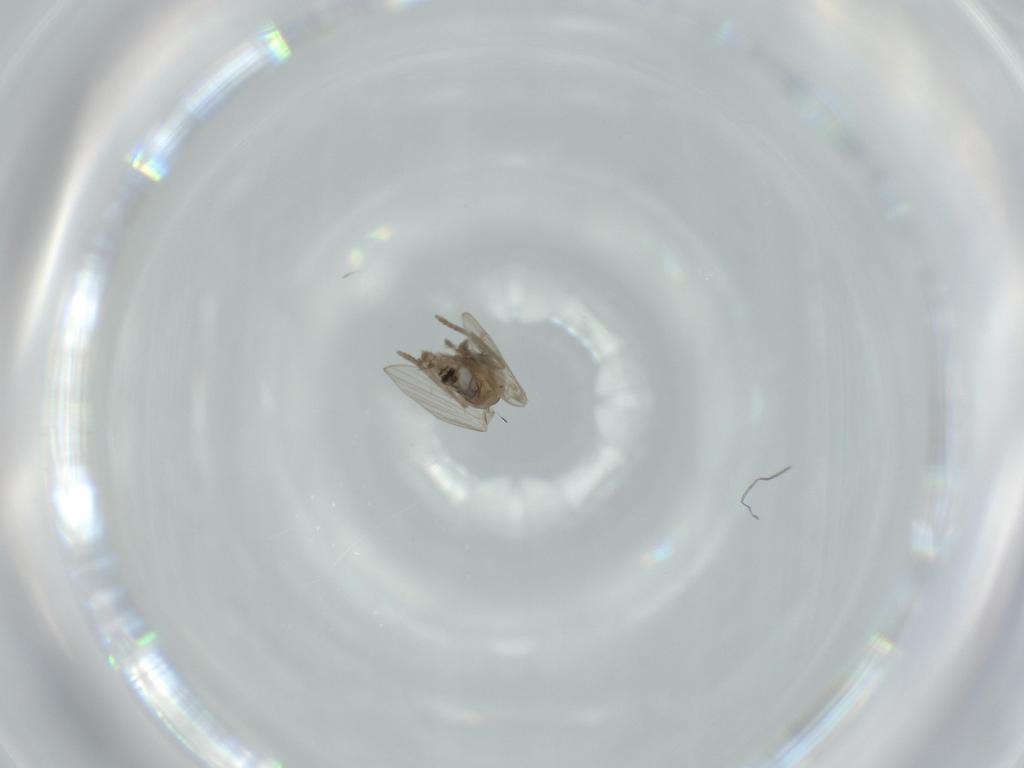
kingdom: Animalia
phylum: Arthropoda
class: Insecta
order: Diptera
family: Psychodidae
